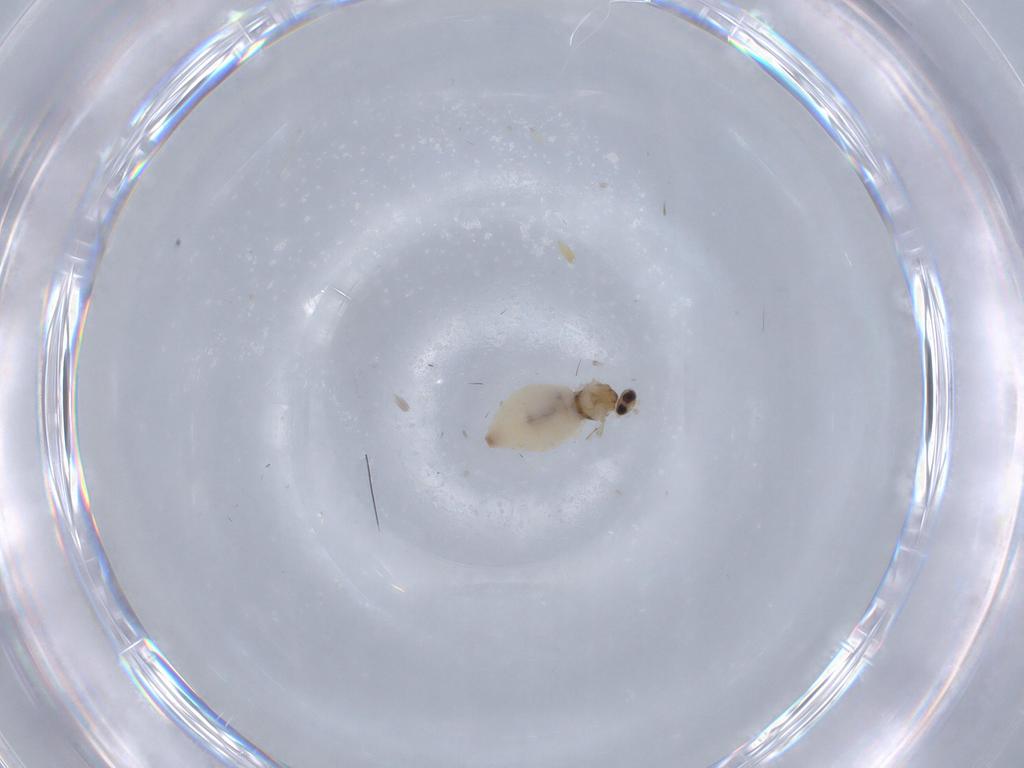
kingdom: Animalia
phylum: Arthropoda
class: Insecta
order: Diptera
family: Cecidomyiidae
